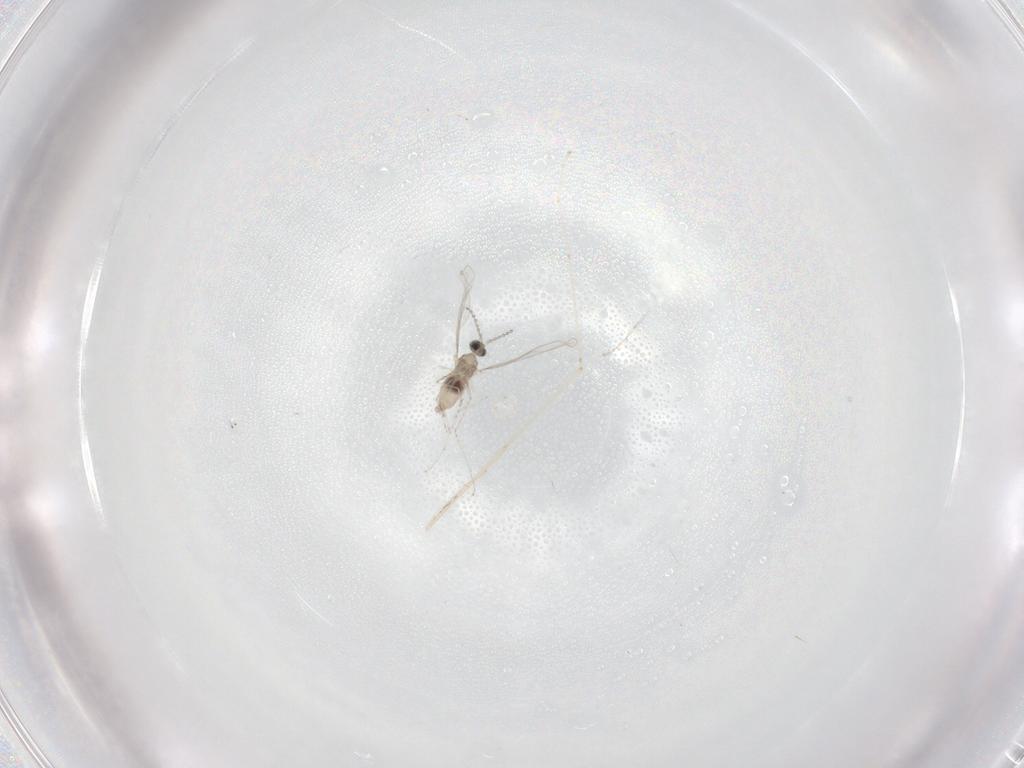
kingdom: Animalia
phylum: Arthropoda
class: Insecta
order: Diptera
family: Cecidomyiidae
